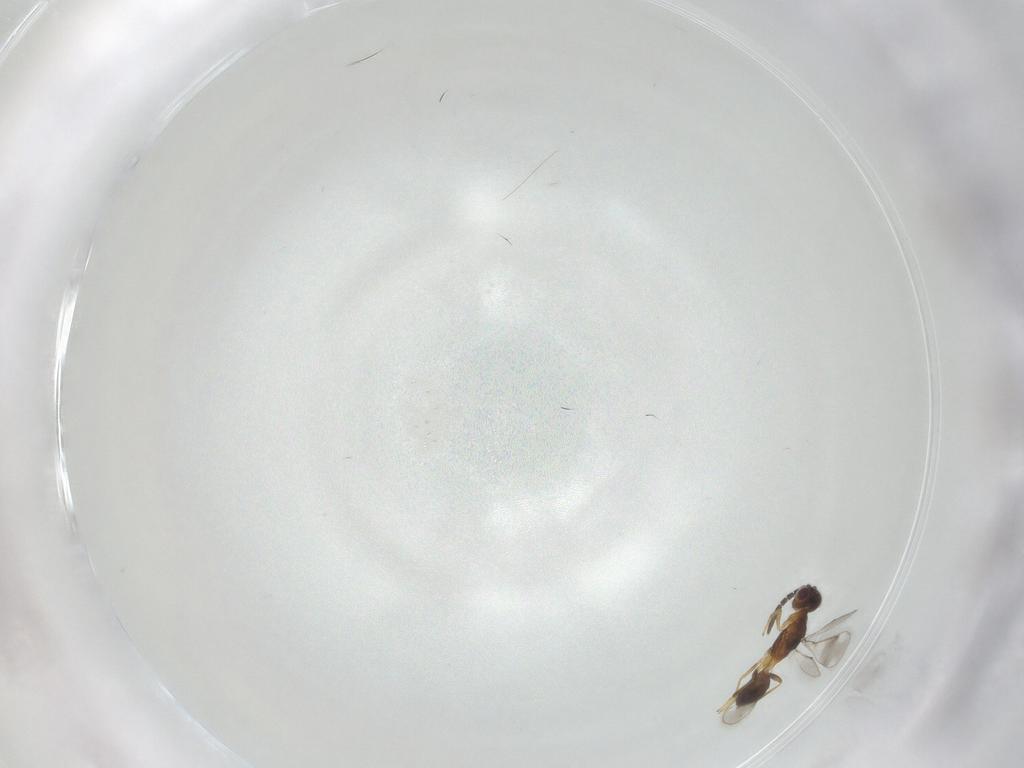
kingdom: Animalia
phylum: Arthropoda
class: Insecta
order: Hymenoptera
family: Pteromalidae
